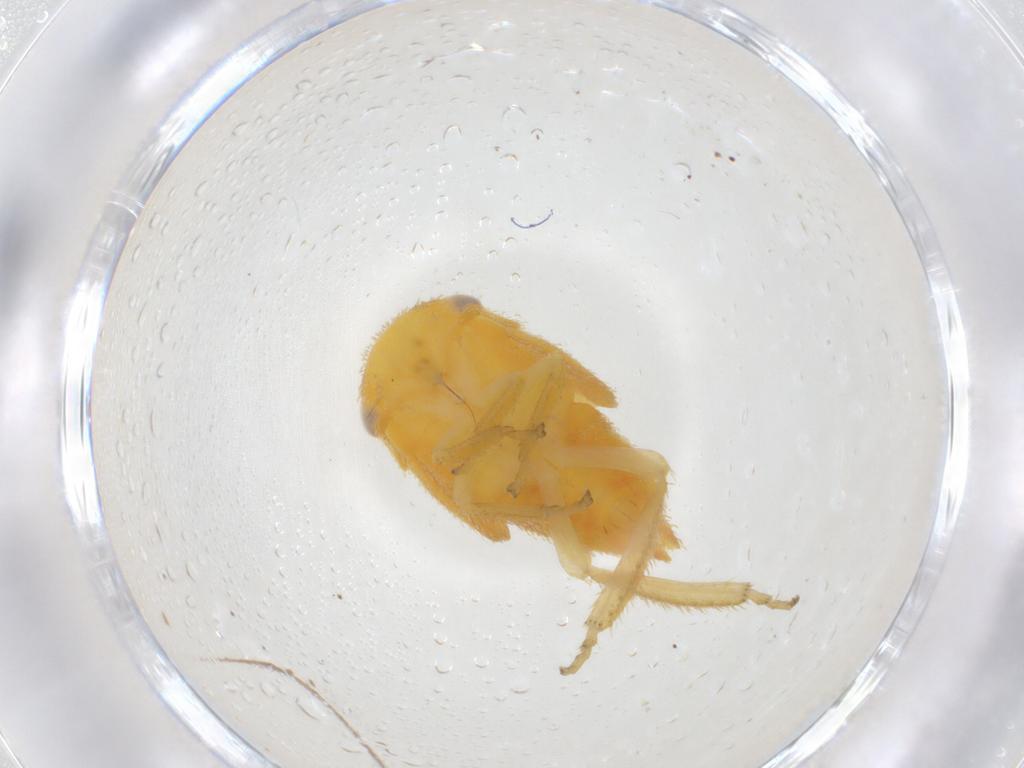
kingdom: Animalia
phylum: Arthropoda
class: Insecta
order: Hemiptera
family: Cicadellidae
